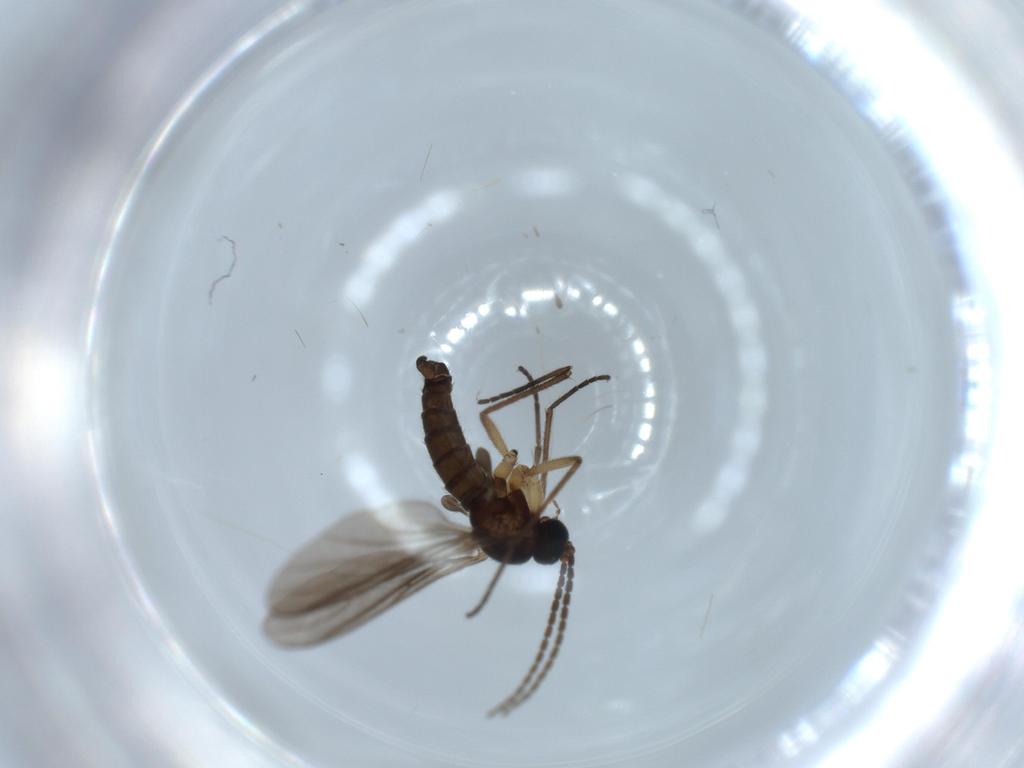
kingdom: Animalia
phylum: Arthropoda
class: Insecta
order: Diptera
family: Sciaridae
